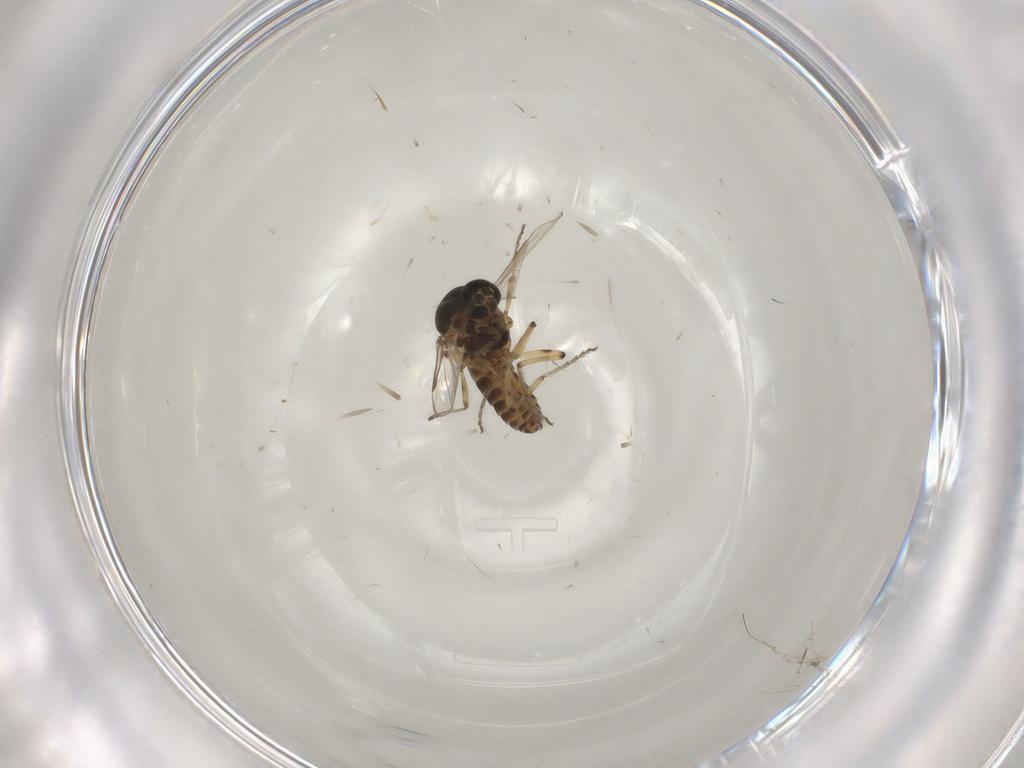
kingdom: Animalia
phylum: Arthropoda
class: Insecta
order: Diptera
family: Ceratopogonidae
